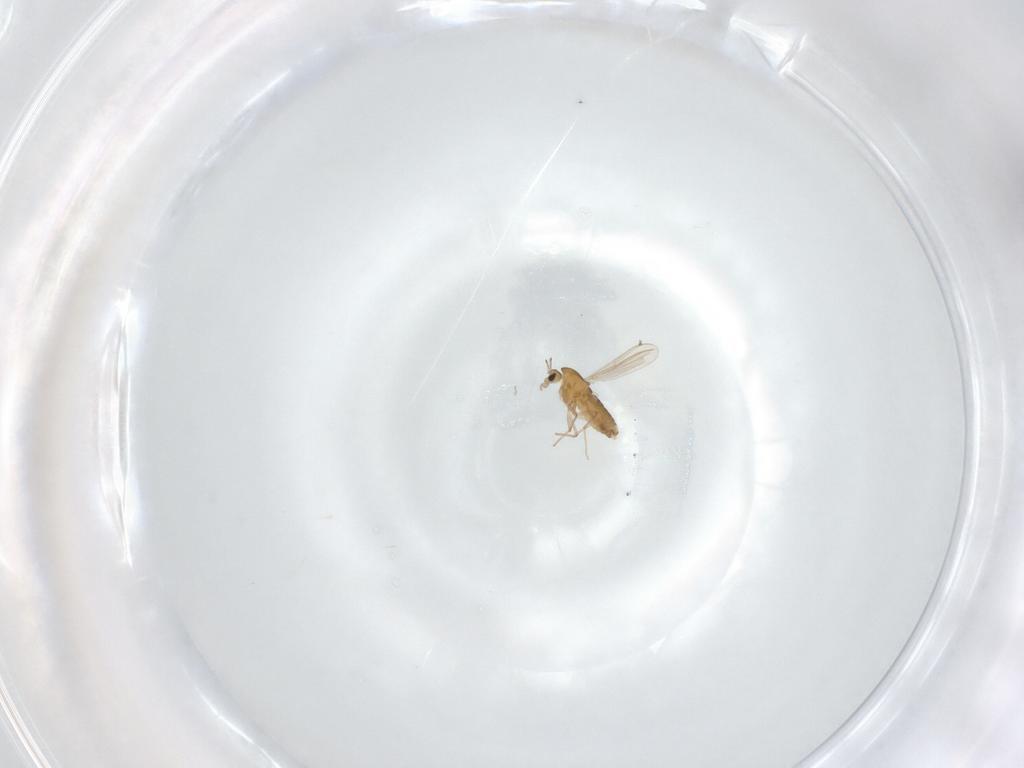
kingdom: Animalia
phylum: Arthropoda
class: Insecta
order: Diptera
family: Chironomidae
